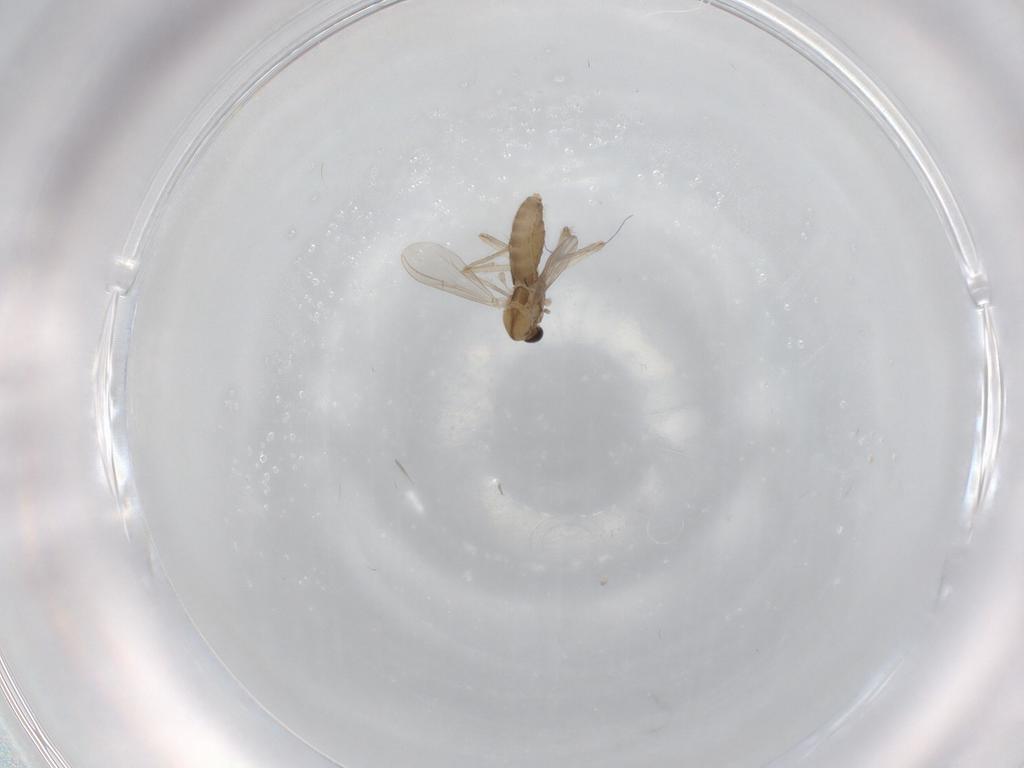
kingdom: Animalia
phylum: Arthropoda
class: Insecta
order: Diptera
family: Chironomidae
